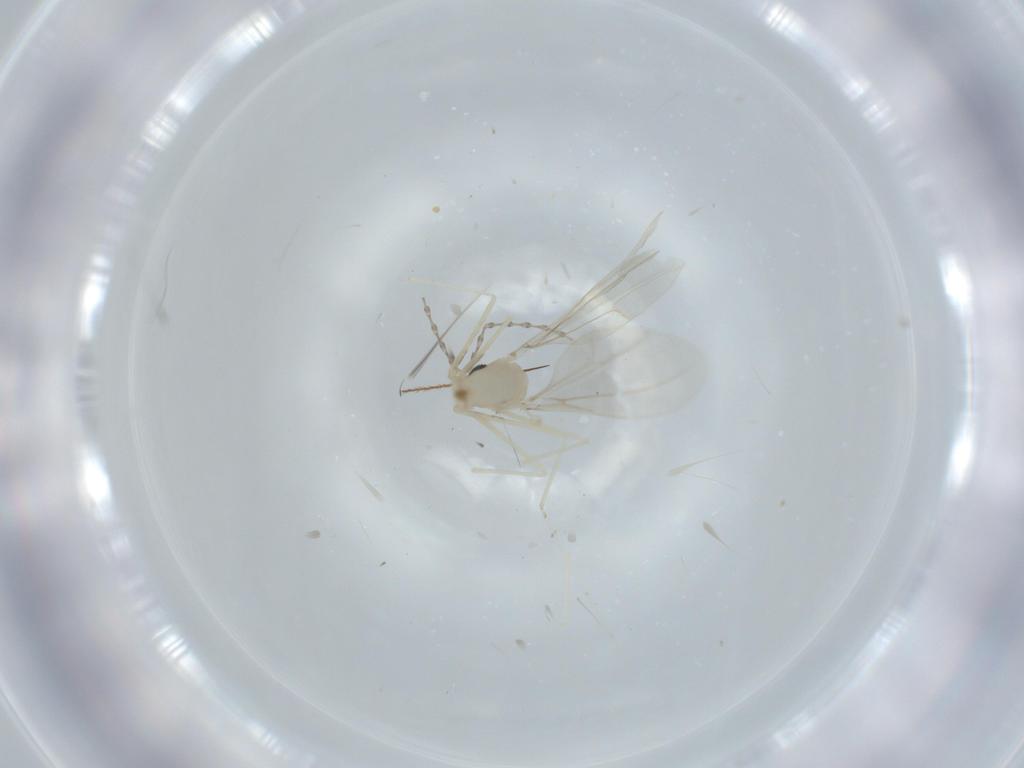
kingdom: Animalia
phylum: Arthropoda
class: Insecta
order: Diptera
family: Cecidomyiidae
